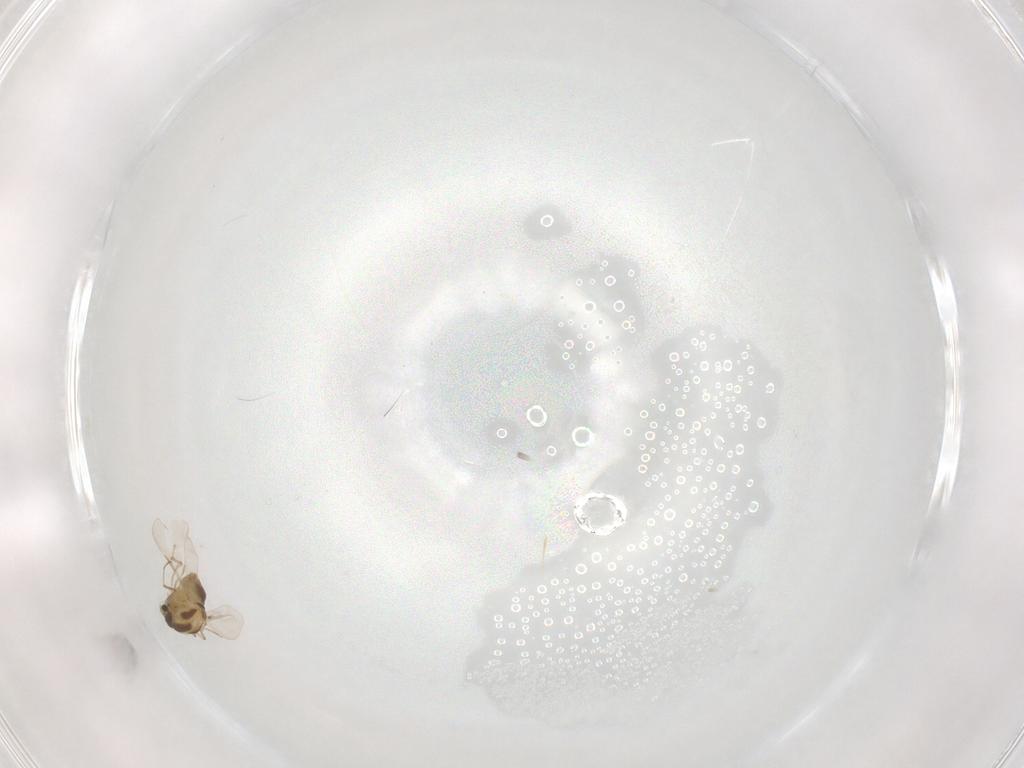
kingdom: Animalia
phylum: Arthropoda
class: Insecta
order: Diptera
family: Chironomidae
